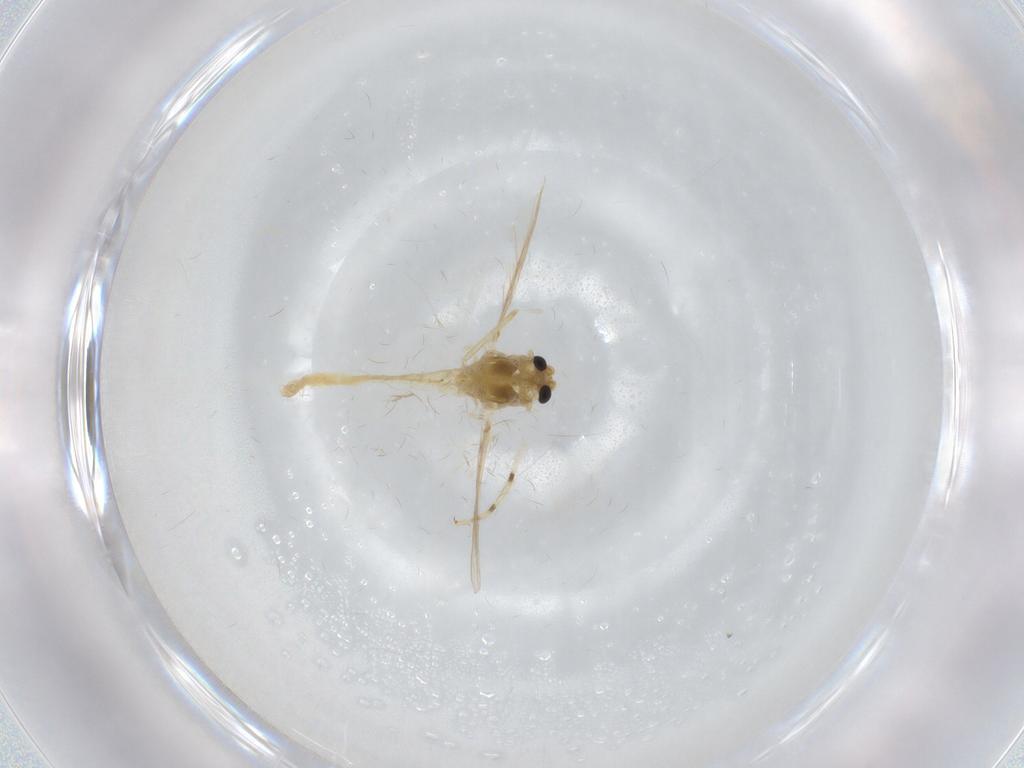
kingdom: Animalia
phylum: Arthropoda
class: Insecta
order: Diptera
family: Chironomidae
